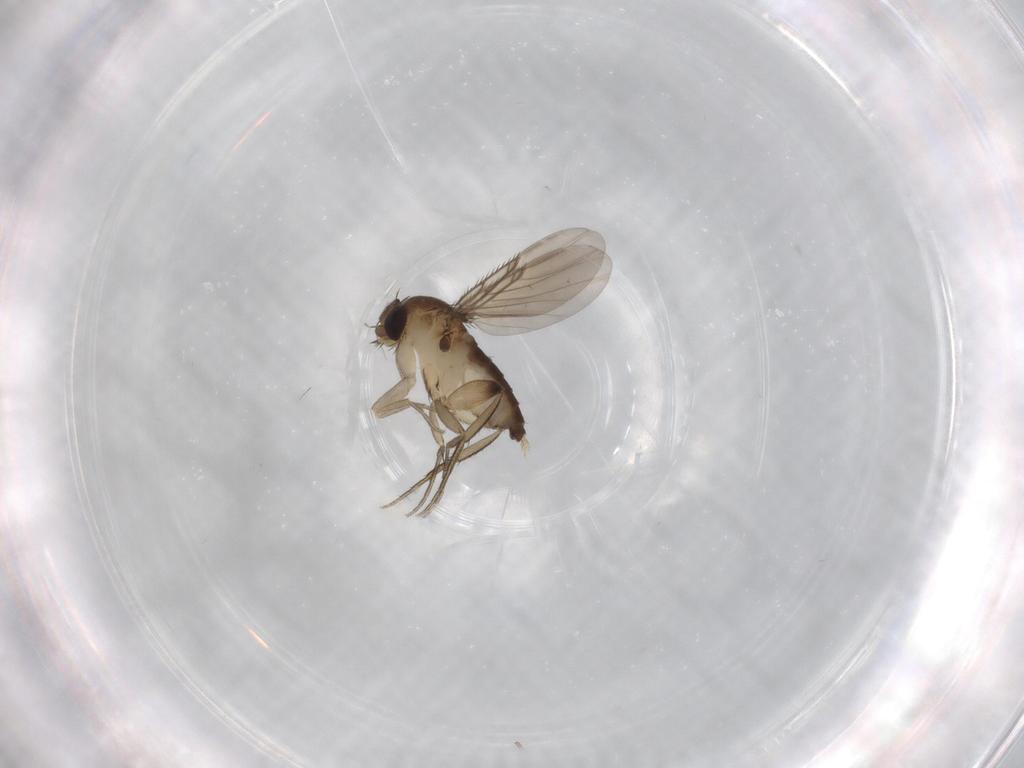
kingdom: Animalia
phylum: Arthropoda
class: Insecta
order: Diptera
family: Phoridae
